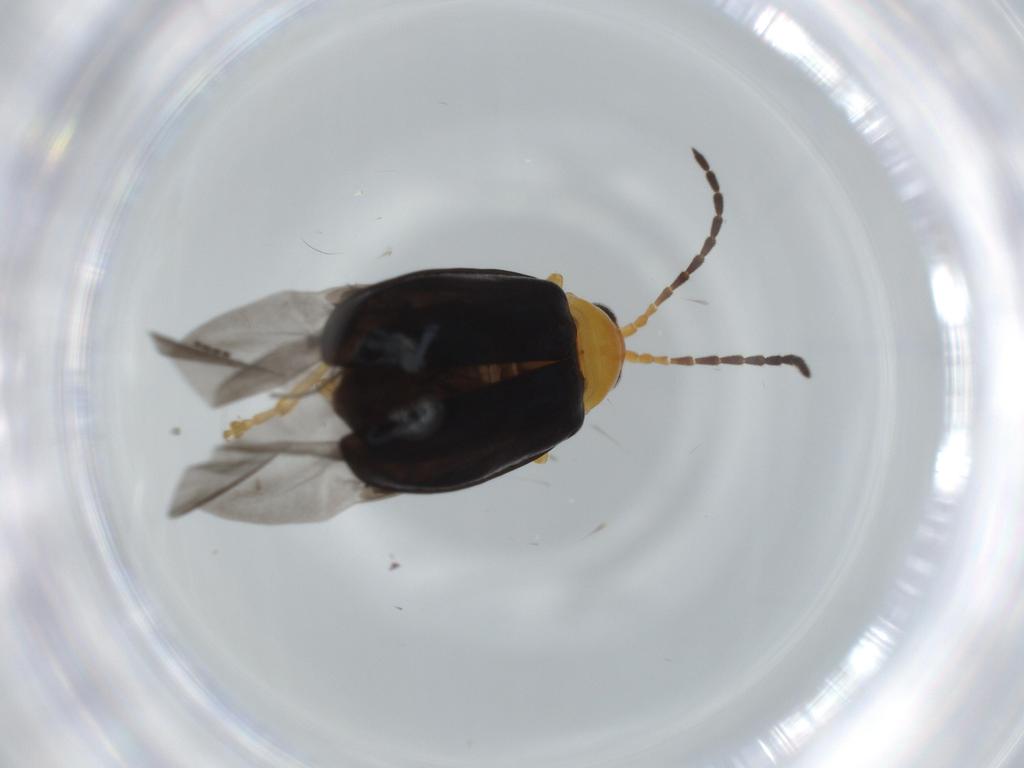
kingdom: Animalia
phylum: Arthropoda
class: Insecta
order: Coleoptera
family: Chrysomelidae
